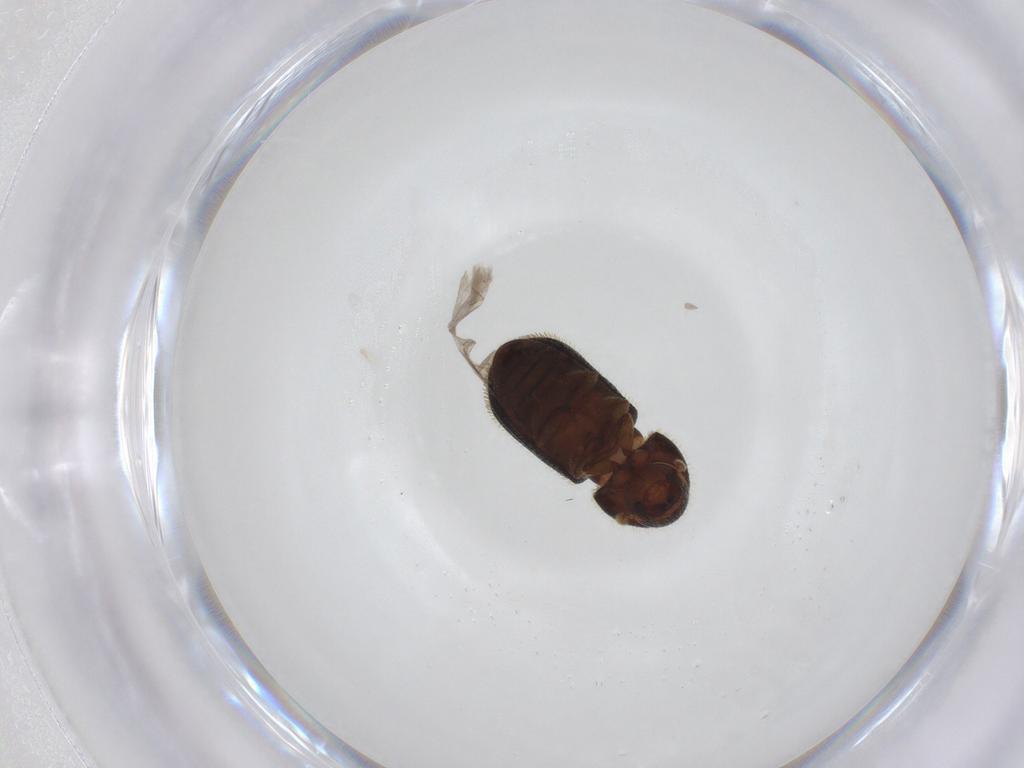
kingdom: Animalia
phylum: Arthropoda
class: Insecta
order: Coleoptera
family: Curculionidae
